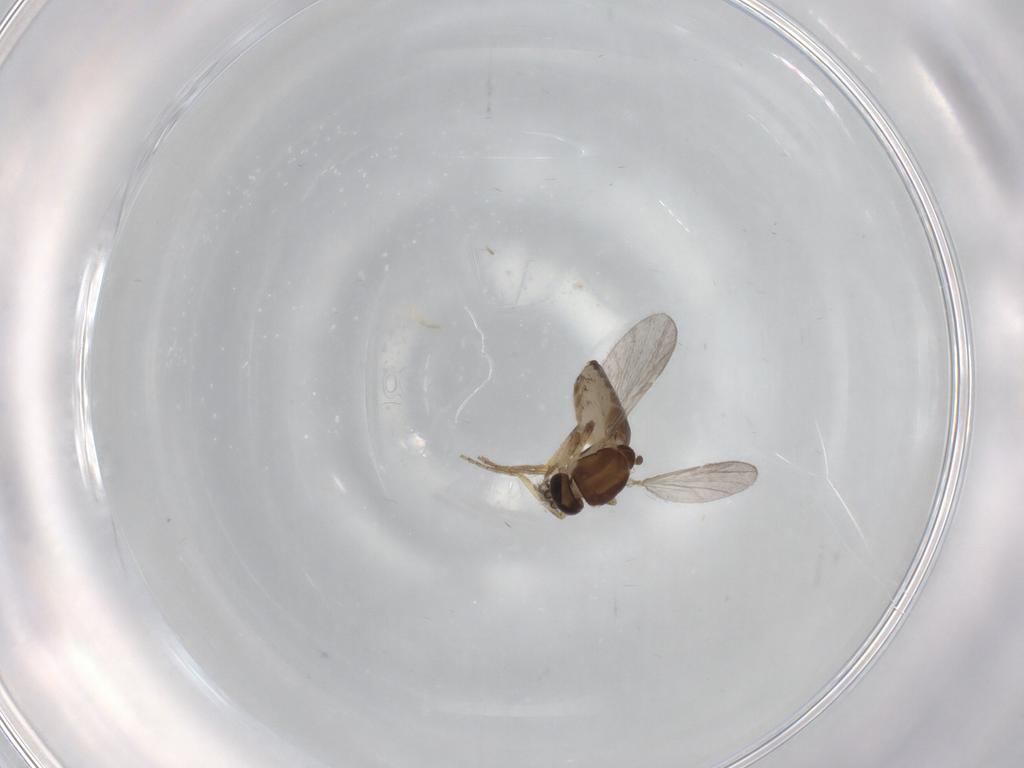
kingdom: Animalia
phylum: Arthropoda
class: Insecta
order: Diptera
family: Ceratopogonidae
